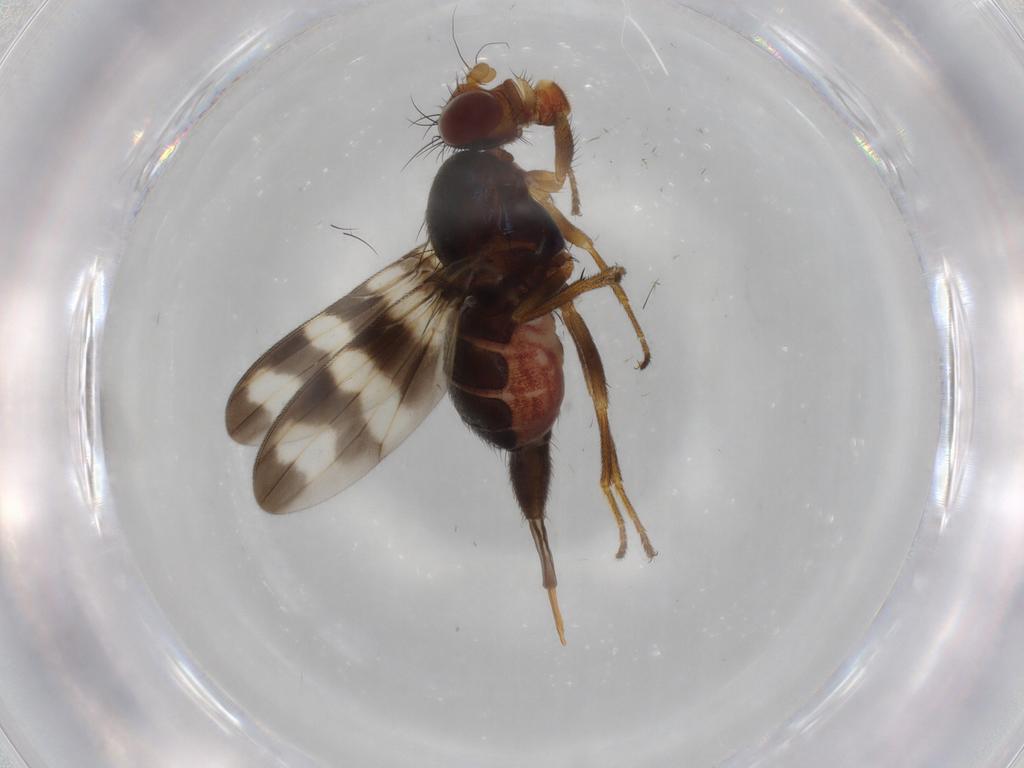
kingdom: Animalia
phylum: Arthropoda
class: Insecta
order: Diptera
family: Ulidiidae
